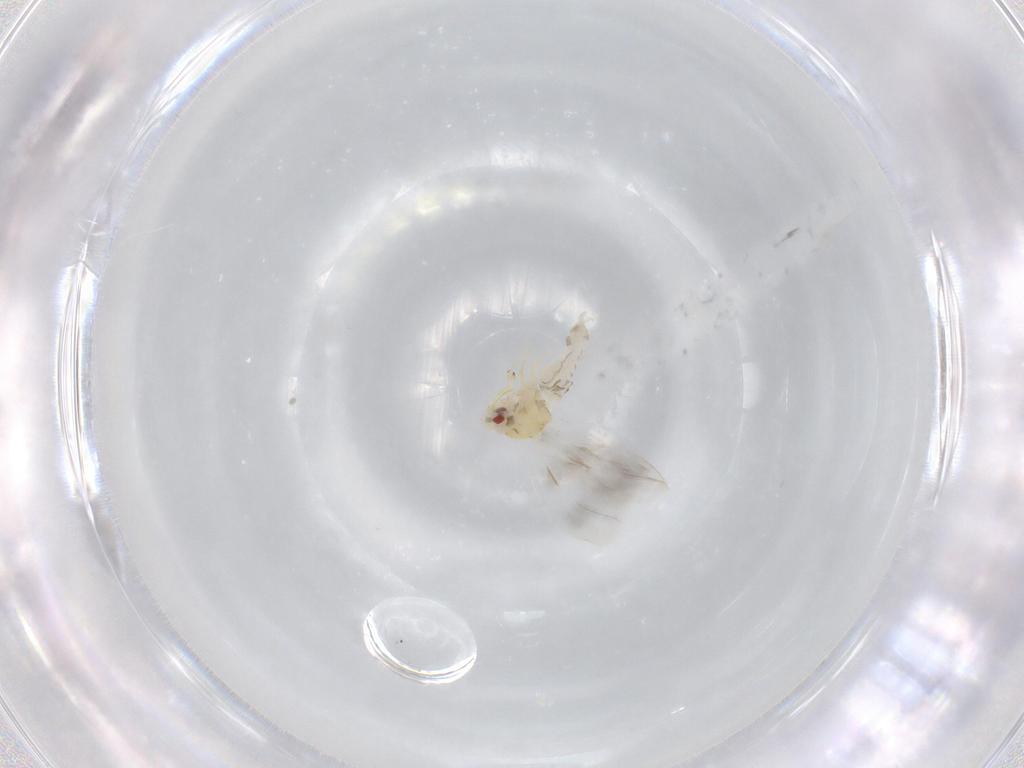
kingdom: Animalia
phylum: Arthropoda
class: Insecta
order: Hemiptera
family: Aleyrodidae
